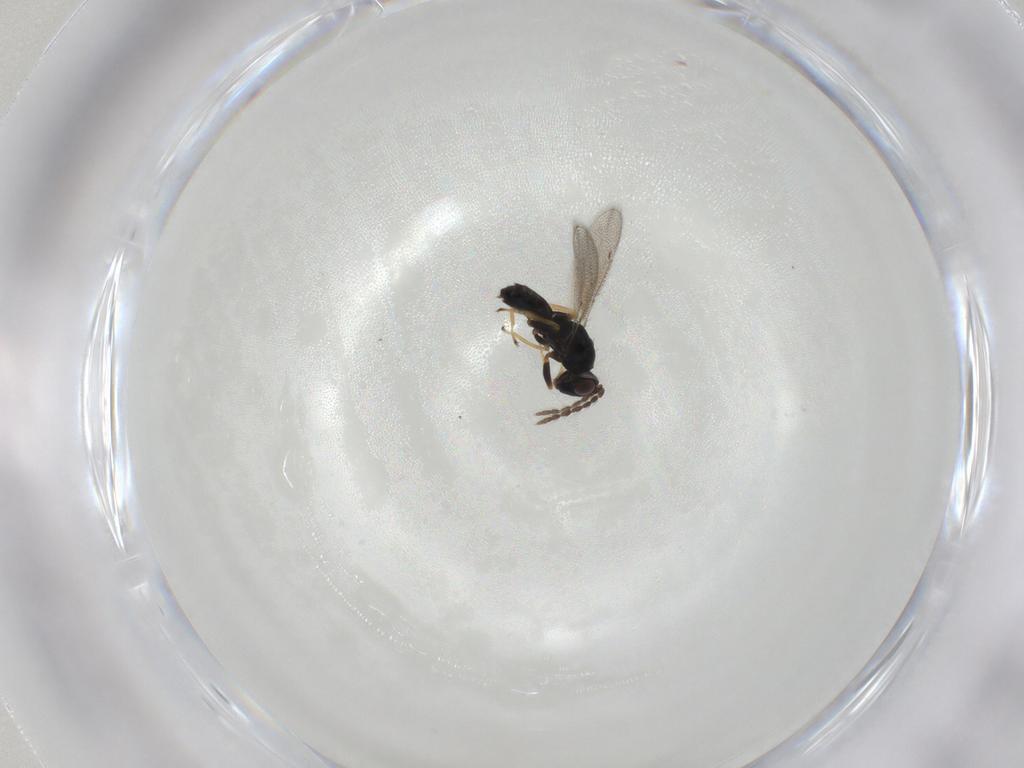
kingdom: Animalia
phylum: Arthropoda
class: Insecta
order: Hymenoptera
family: Eulophidae
